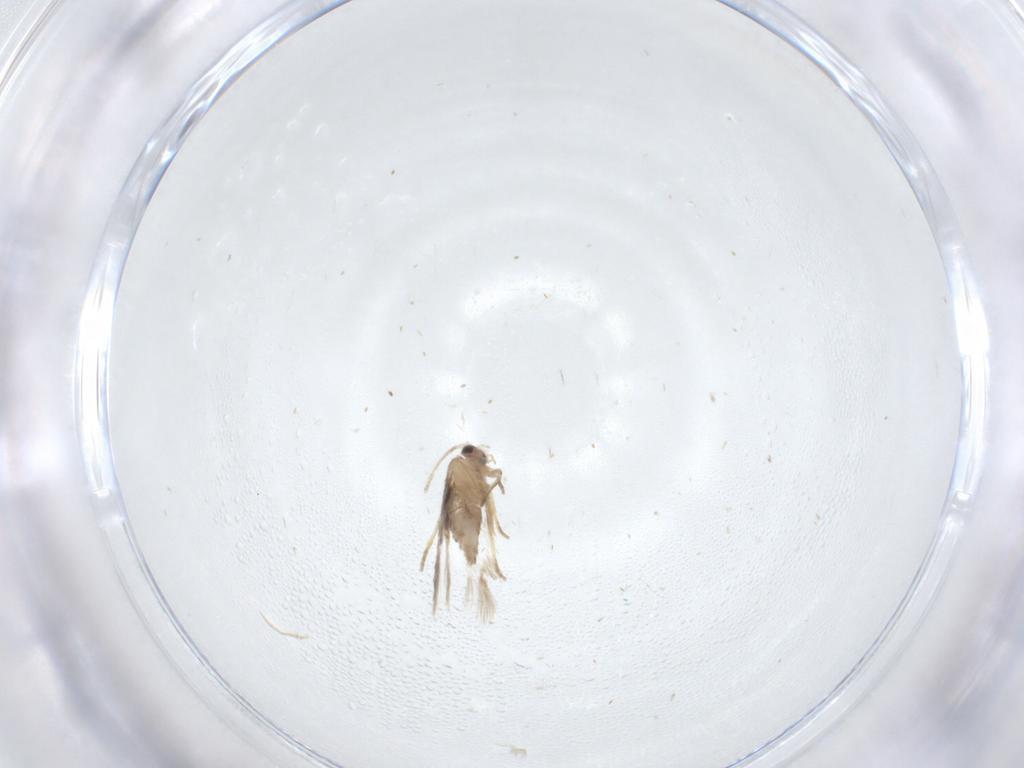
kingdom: Animalia
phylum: Arthropoda
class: Insecta
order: Lepidoptera
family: Nepticulidae
